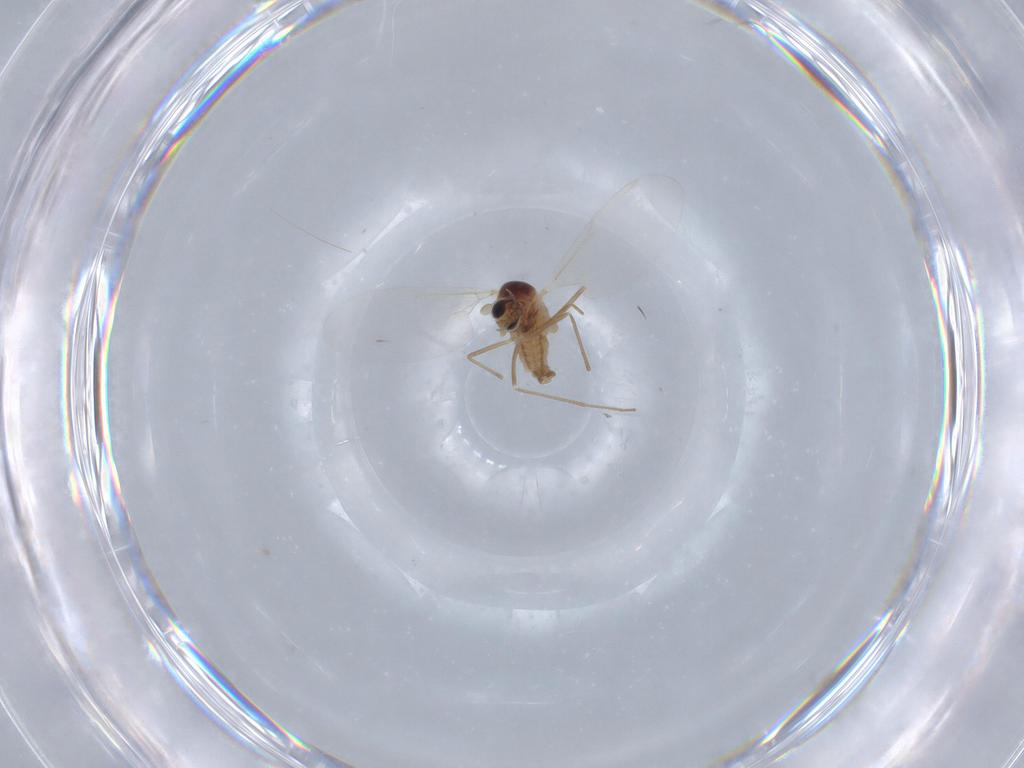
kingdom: Animalia
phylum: Arthropoda
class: Insecta
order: Diptera
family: Cecidomyiidae
